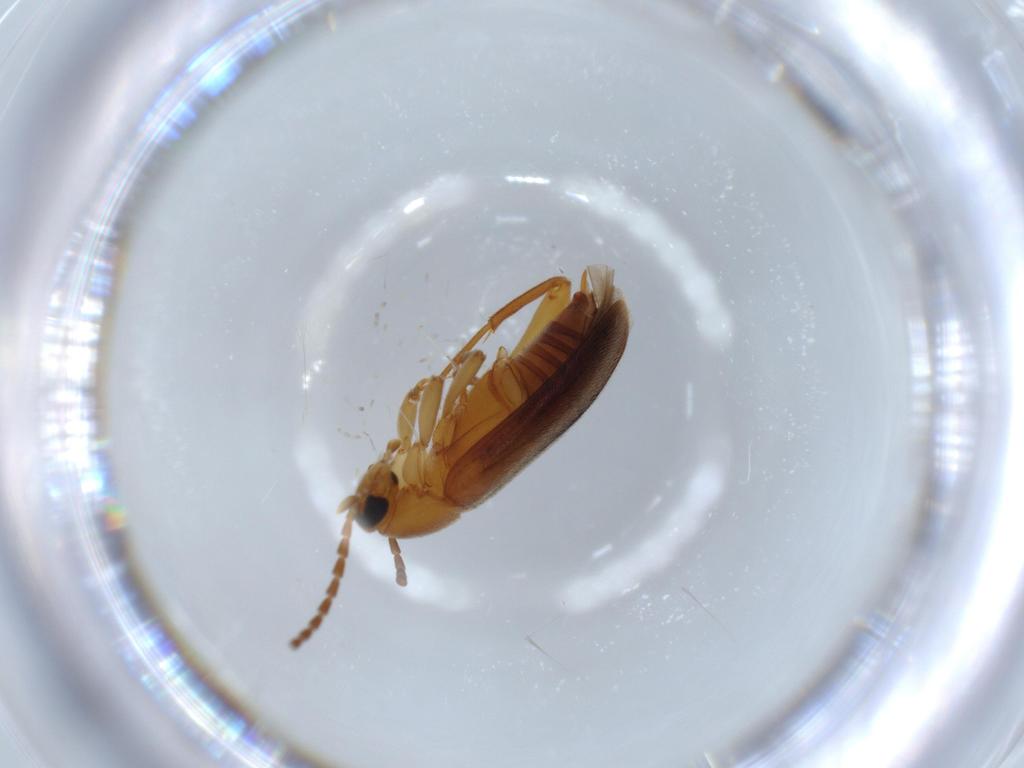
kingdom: Animalia
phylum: Arthropoda
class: Insecta
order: Coleoptera
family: Scraptiidae
